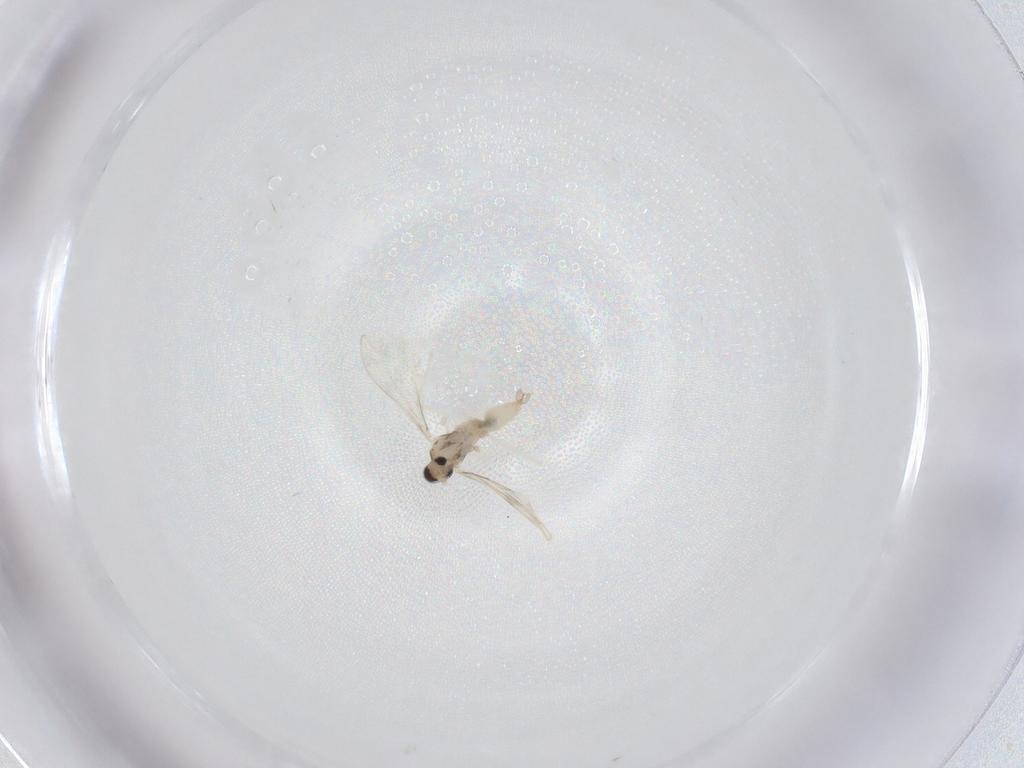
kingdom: Animalia
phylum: Arthropoda
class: Insecta
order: Diptera
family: Cecidomyiidae
